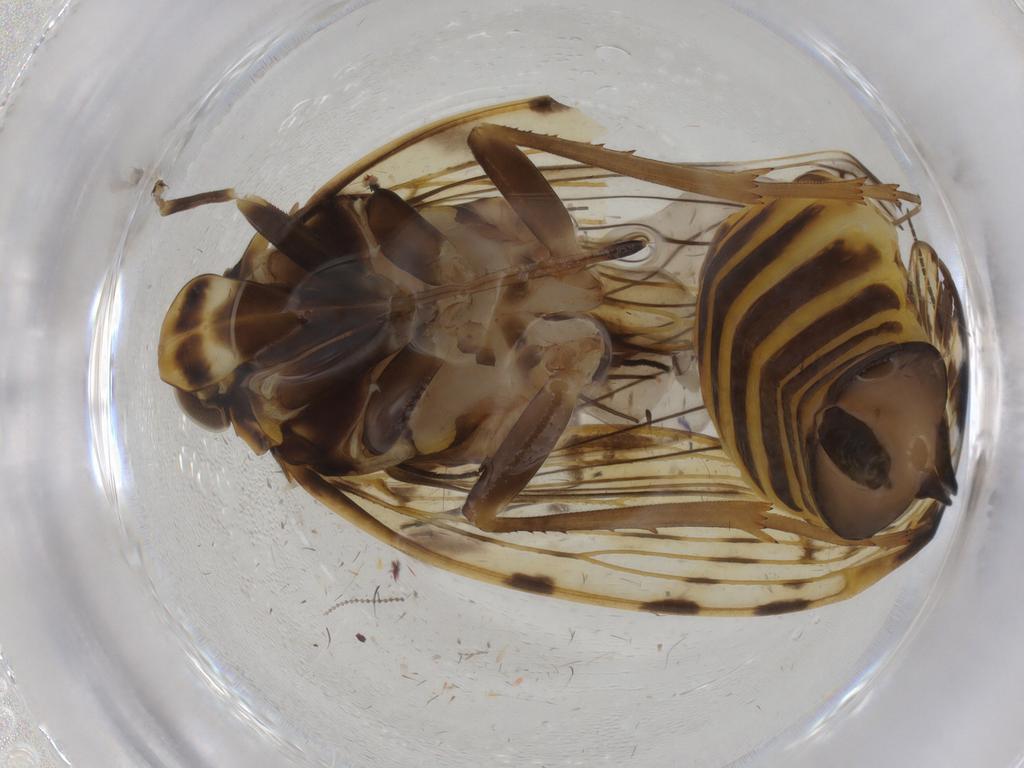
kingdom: Animalia
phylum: Arthropoda
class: Insecta
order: Hemiptera
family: Cixiidae
